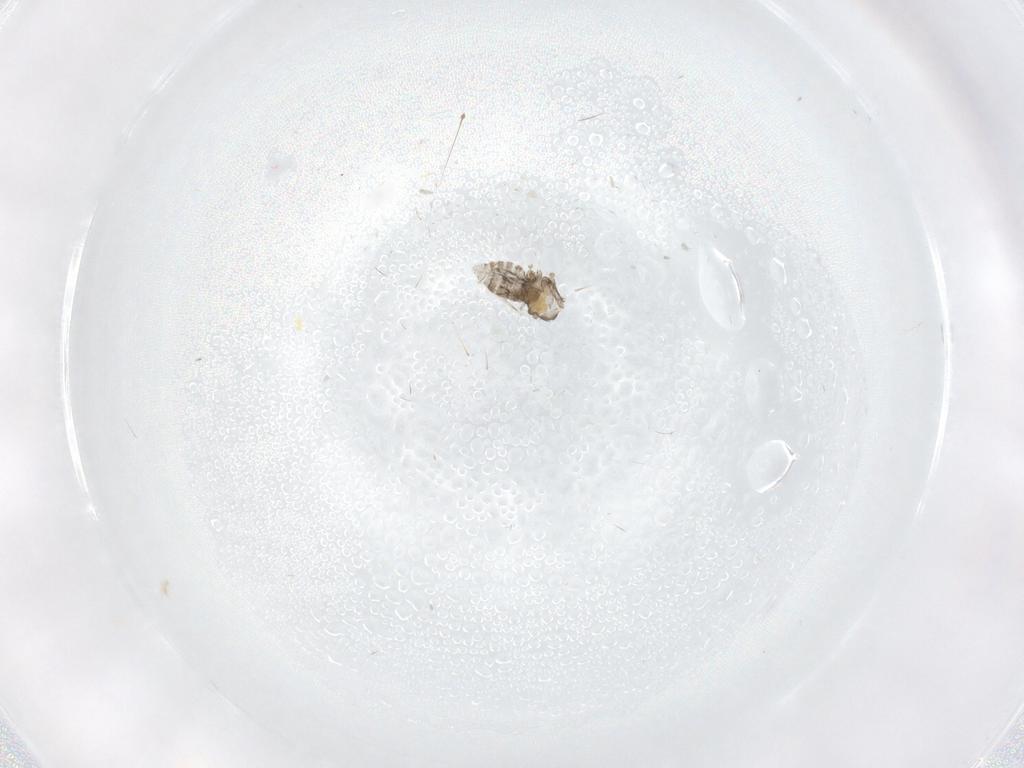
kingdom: Animalia
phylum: Arthropoda
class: Insecta
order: Diptera
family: Cecidomyiidae
